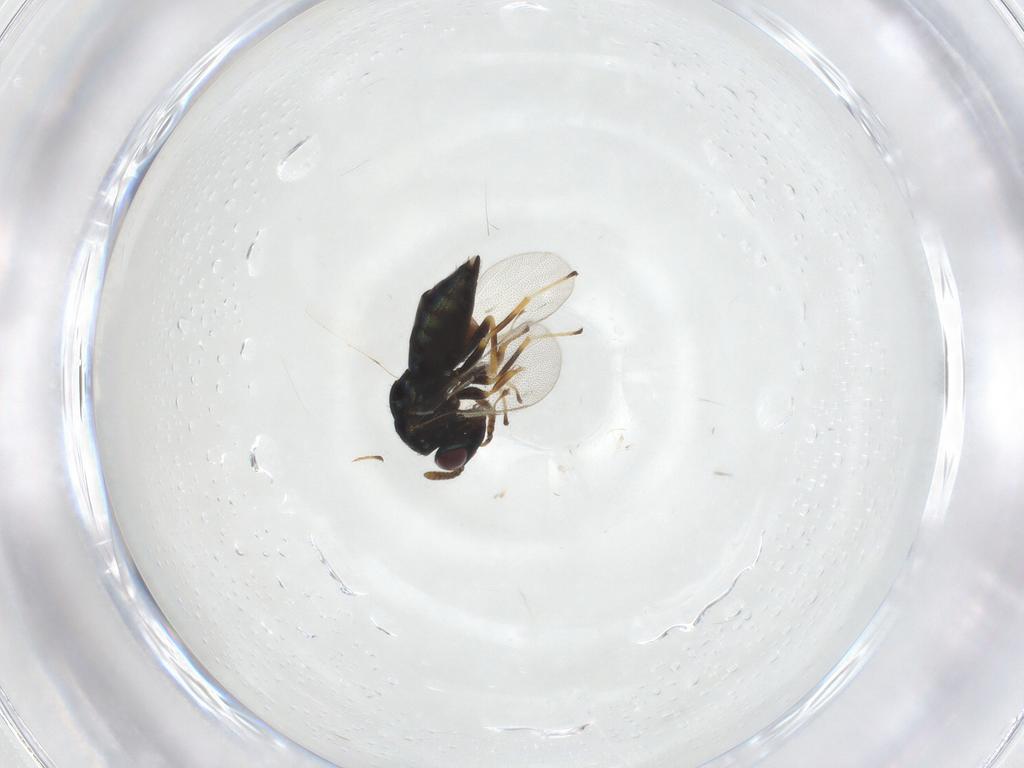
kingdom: Animalia
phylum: Arthropoda
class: Insecta
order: Hymenoptera
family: Pteromalidae
